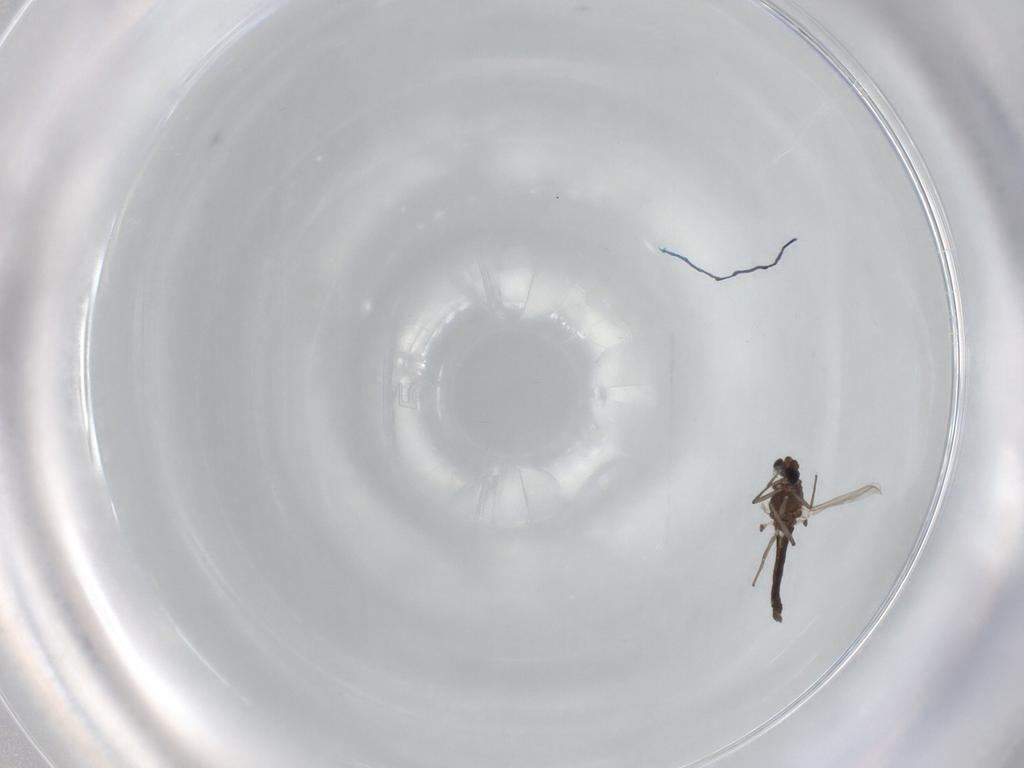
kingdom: Animalia
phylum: Arthropoda
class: Insecta
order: Diptera
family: Chironomidae
